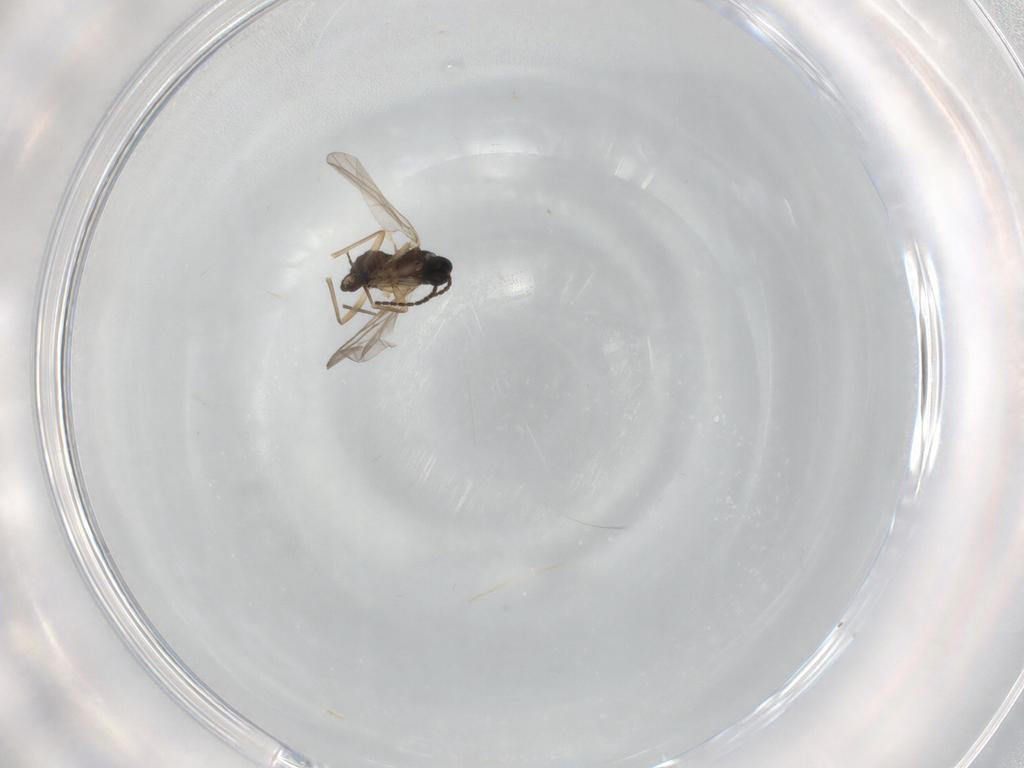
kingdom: Animalia
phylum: Arthropoda
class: Insecta
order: Diptera
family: Sciaridae
